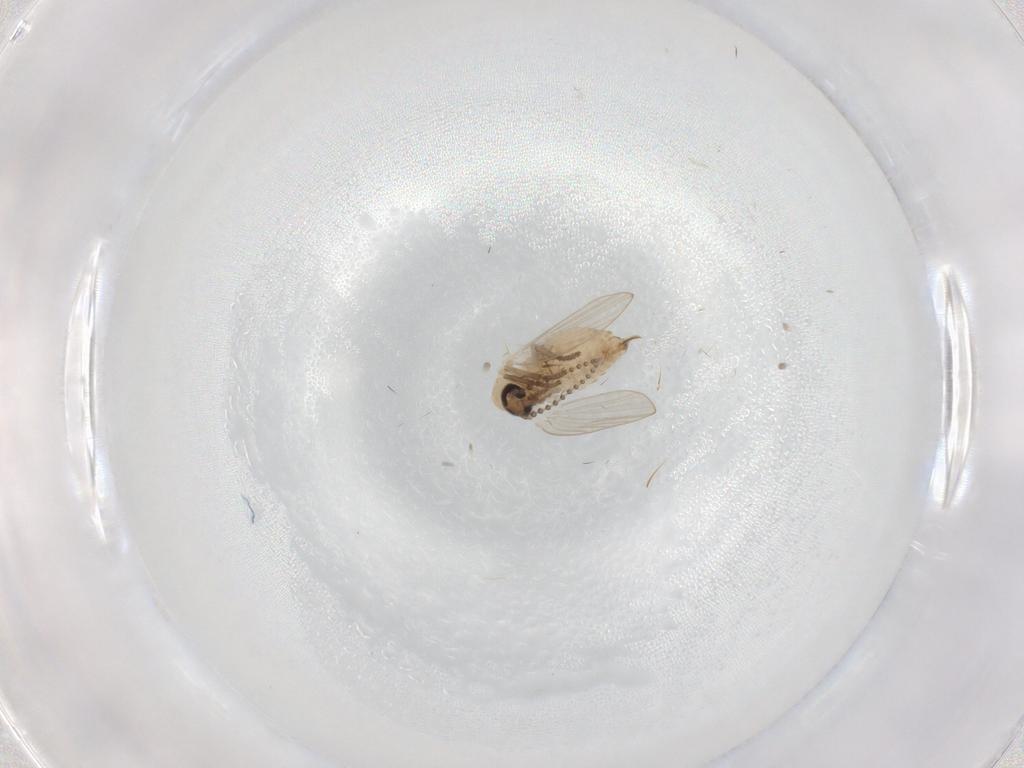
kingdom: Animalia
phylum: Arthropoda
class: Insecta
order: Diptera
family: Psychodidae
